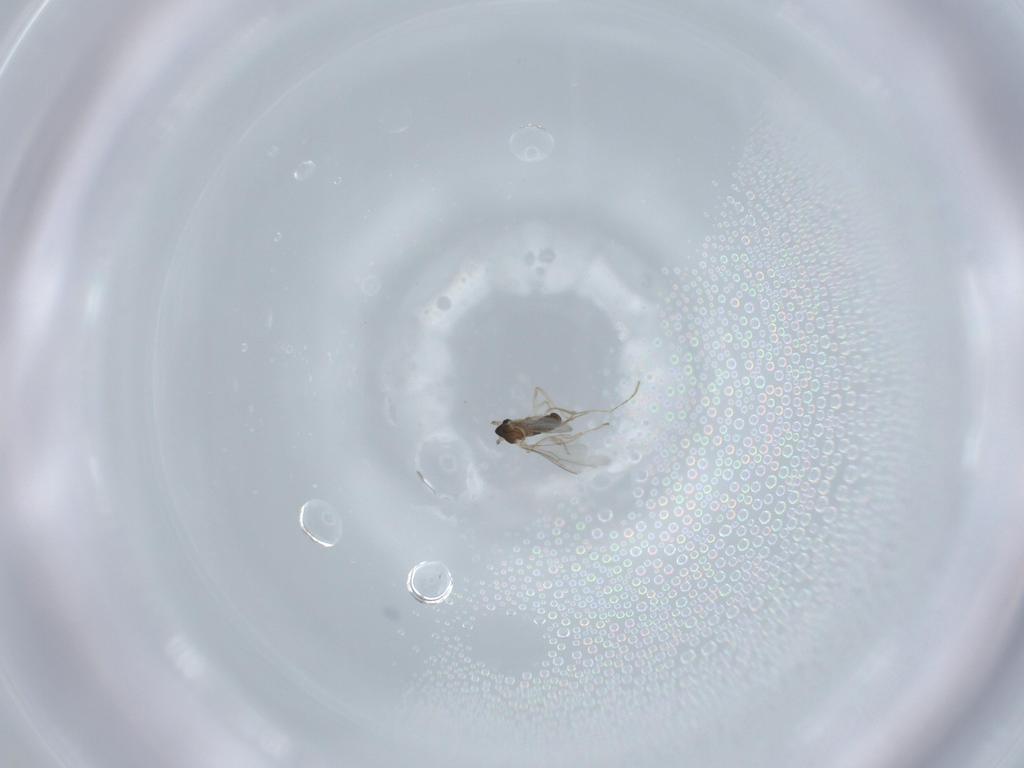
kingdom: Animalia
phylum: Arthropoda
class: Insecta
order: Diptera
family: Cecidomyiidae
